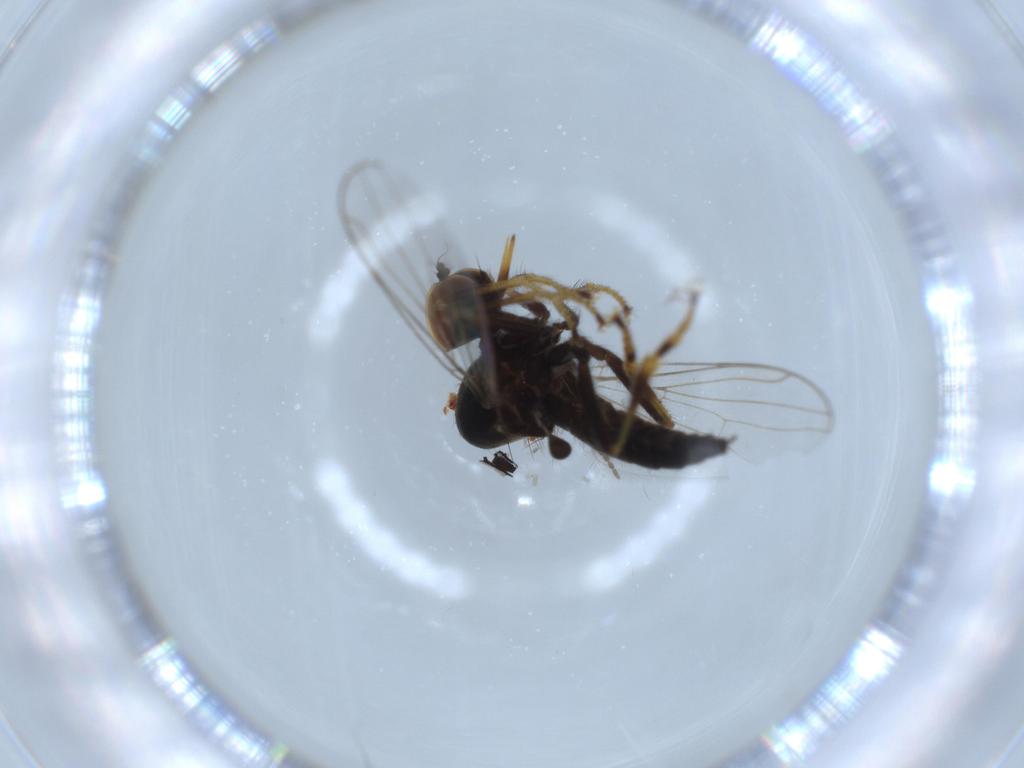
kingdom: Animalia
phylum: Arthropoda
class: Insecta
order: Diptera
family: Hybotidae
